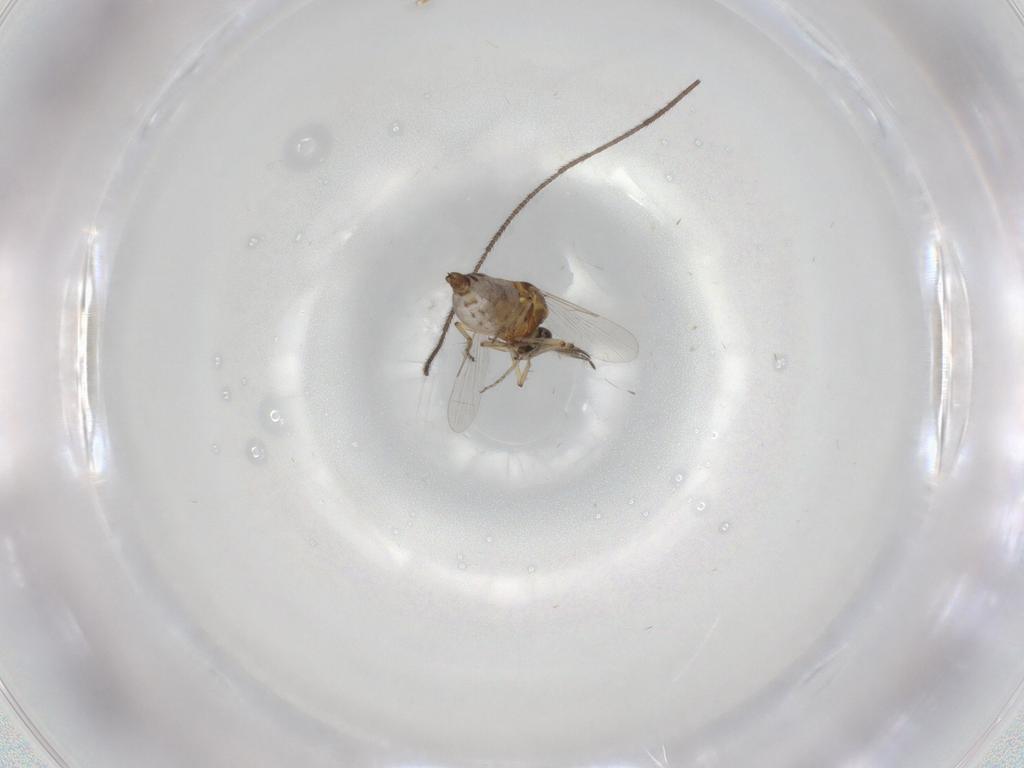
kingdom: Animalia
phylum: Arthropoda
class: Insecta
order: Diptera
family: Ceratopogonidae
